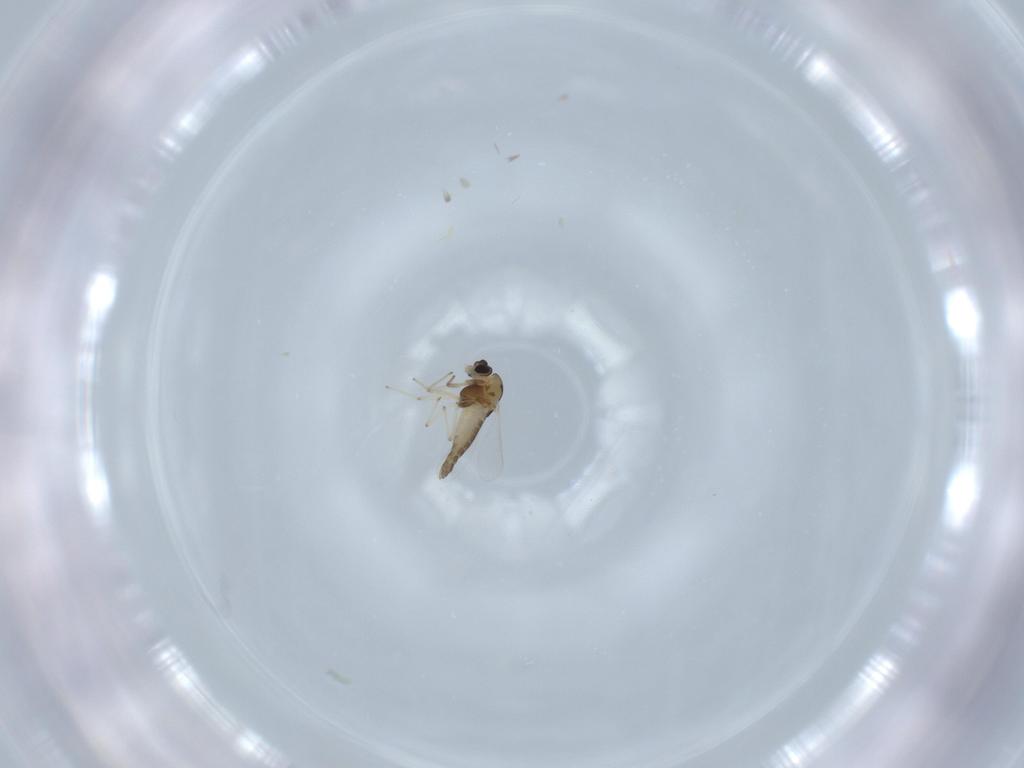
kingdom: Animalia
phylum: Arthropoda
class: Insecta
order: Diptera
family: Chironomidae
